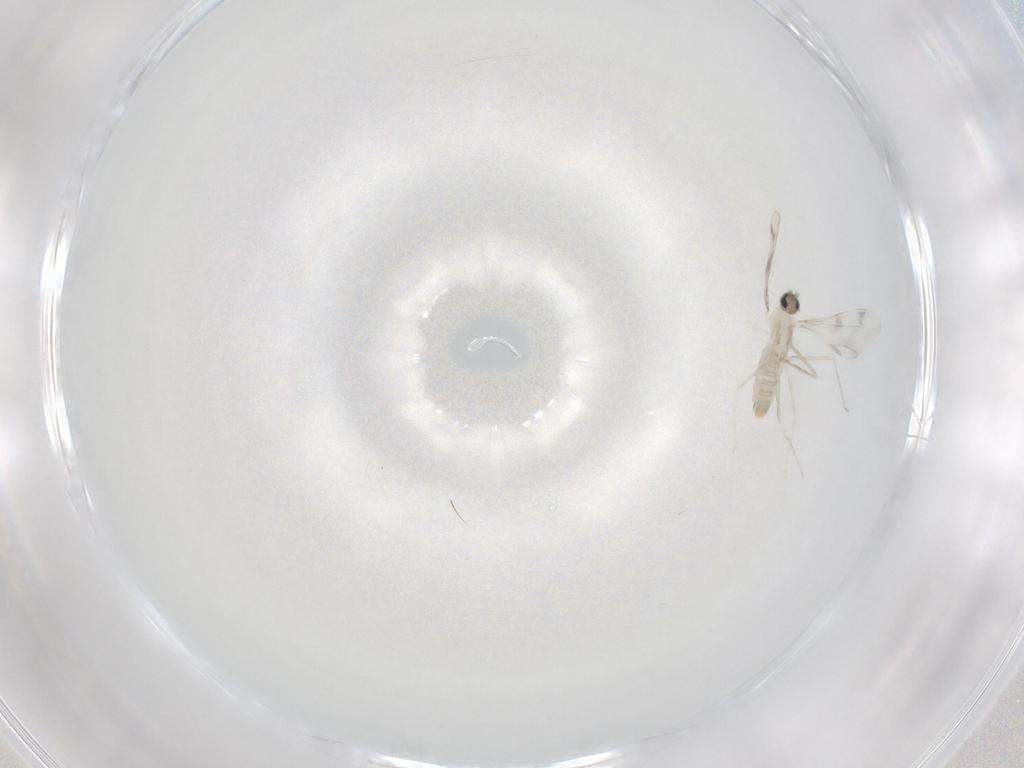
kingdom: Animalia
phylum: Arthropoda
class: Insecta
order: Diptera
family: Cecidomyiidae
